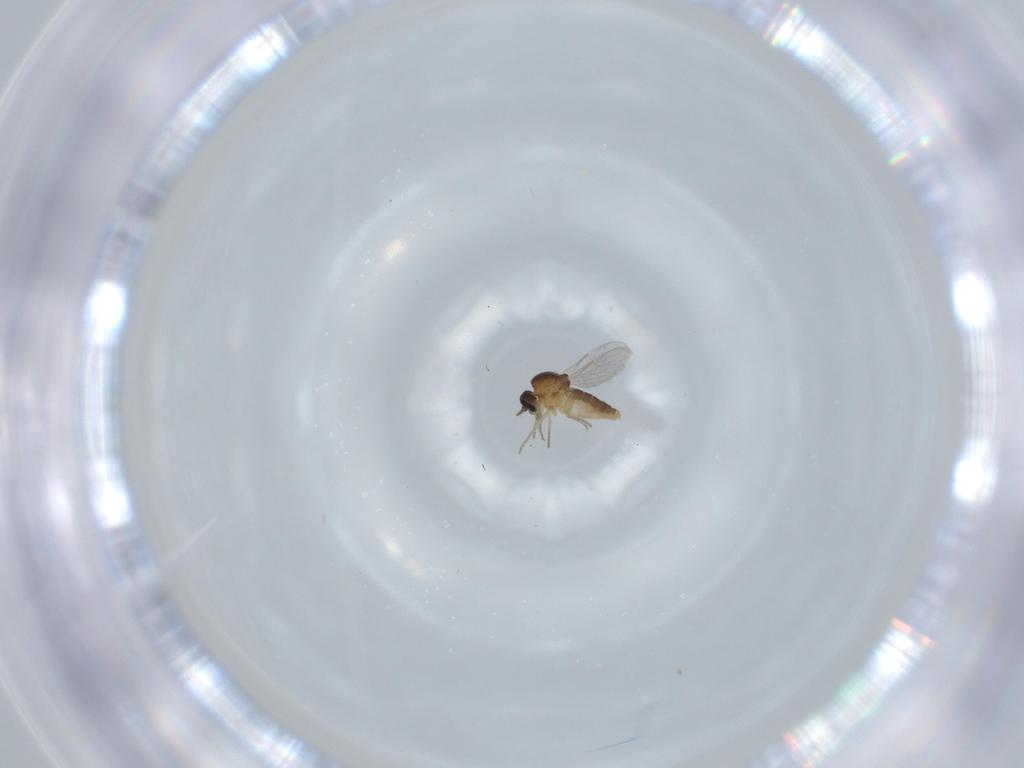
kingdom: Animalia
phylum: Arthropoda
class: Insecta
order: Diptera
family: Ceratopogonidae
